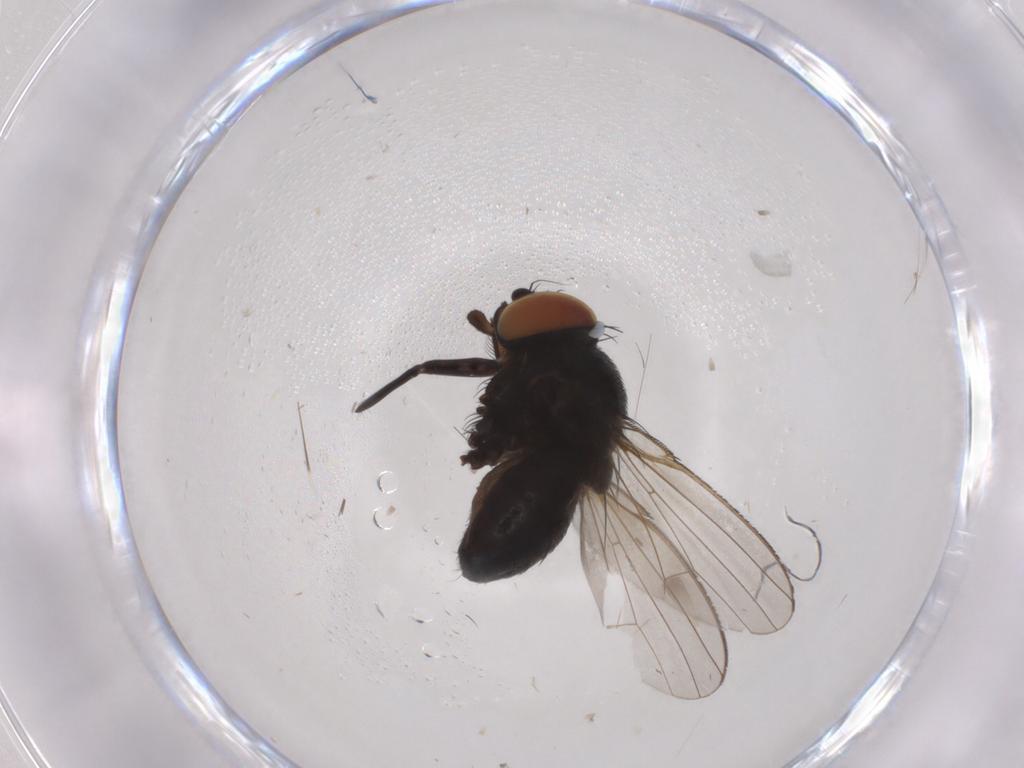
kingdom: Animalia
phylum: Arthropoda
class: Insecta
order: Diptera
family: Milichiidae
